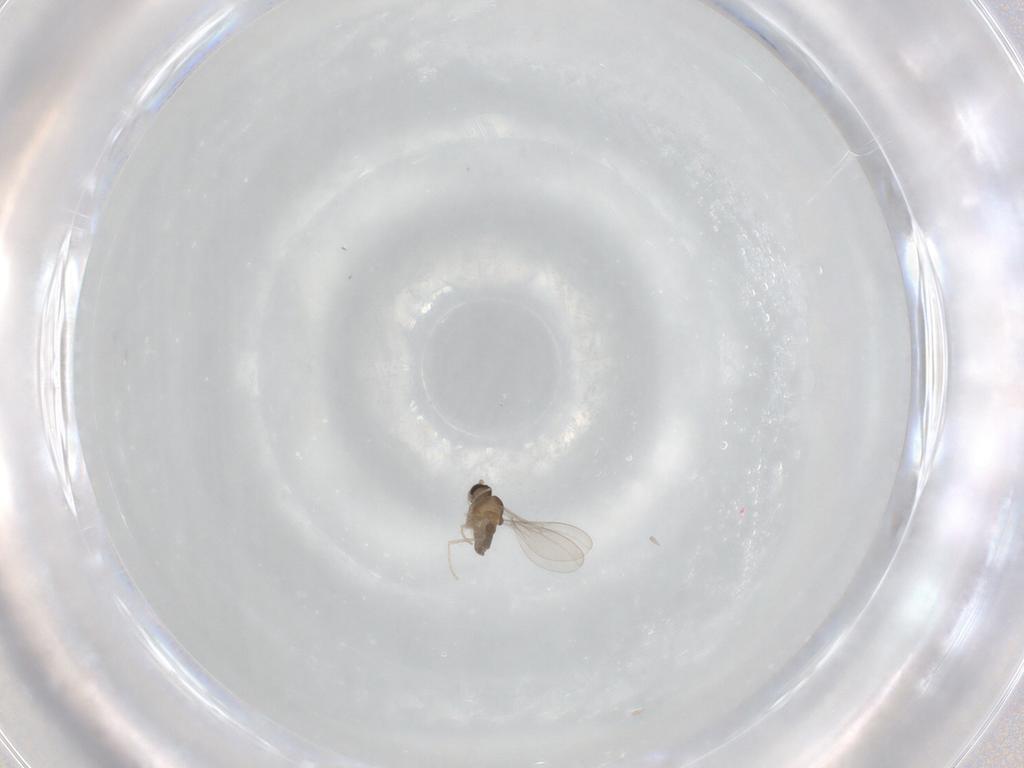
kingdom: Animalia
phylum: Arthropoda
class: Insecta
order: Diptera
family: Cecidomyiidae
